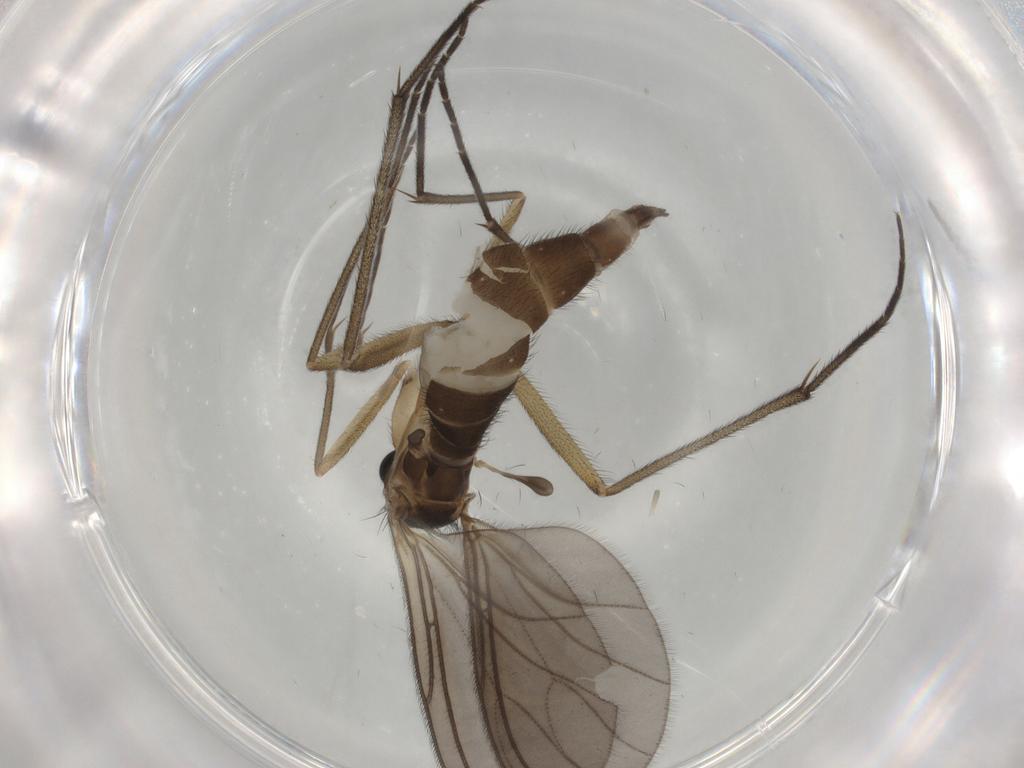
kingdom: Animalia
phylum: Arthropoda
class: Insecta
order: Diptera
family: Sciaridae
